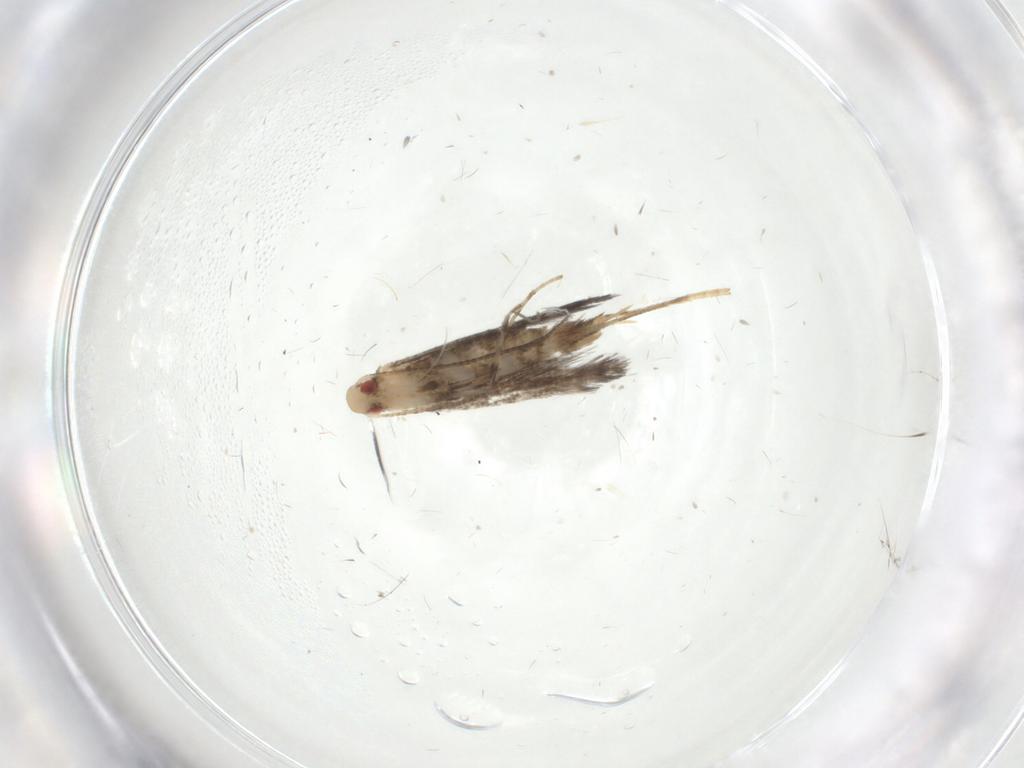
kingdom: Animalia
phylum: Arthropoda
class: Insecta
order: Lepidoptera
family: Gracillariidae
